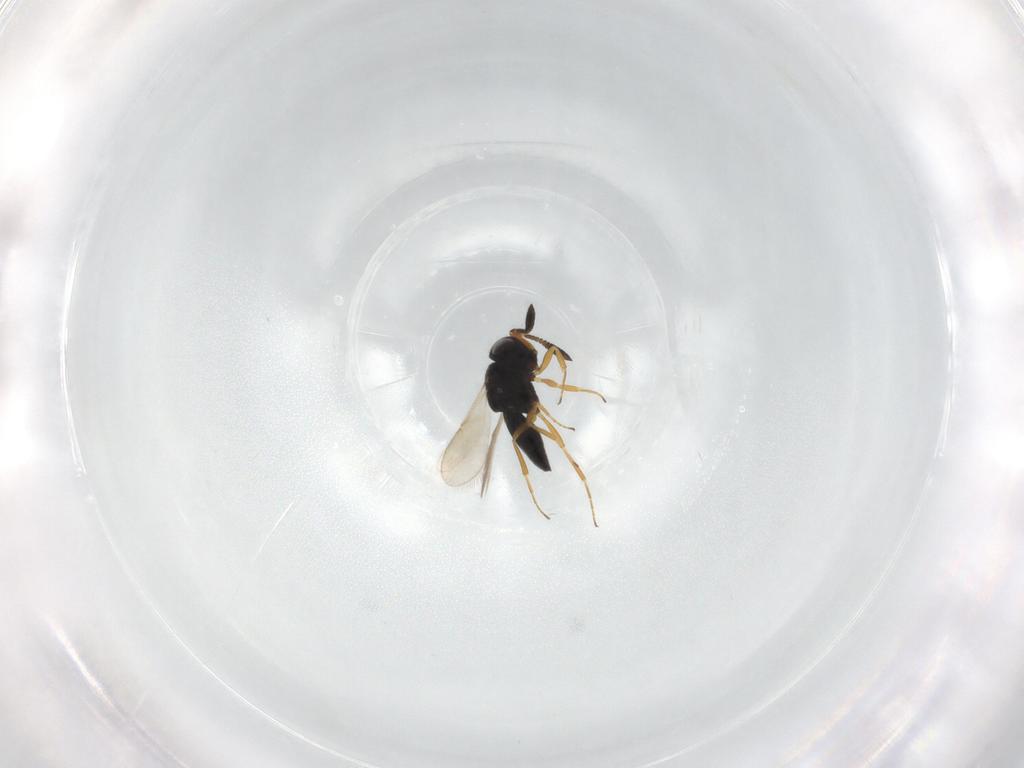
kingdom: Animalia
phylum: Arthropoda
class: Insecta
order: Hymenoptera
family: Scelionidae
